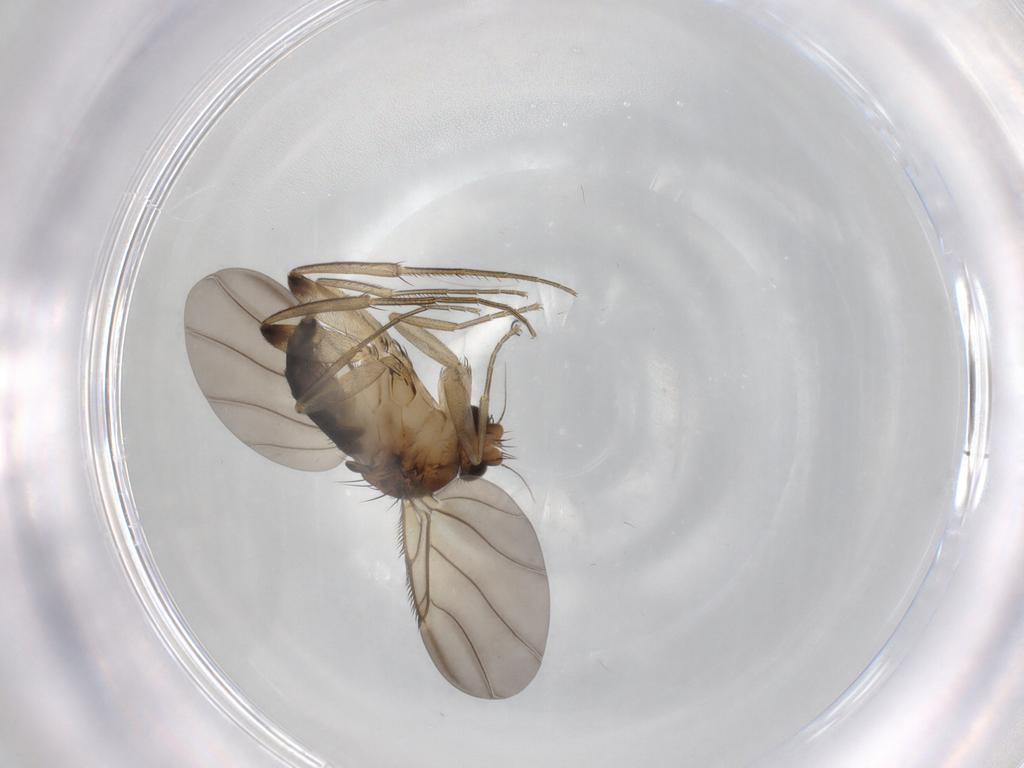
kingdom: Animalia
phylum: Arthropoda
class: Insecta
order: Diptera
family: Phoridae
